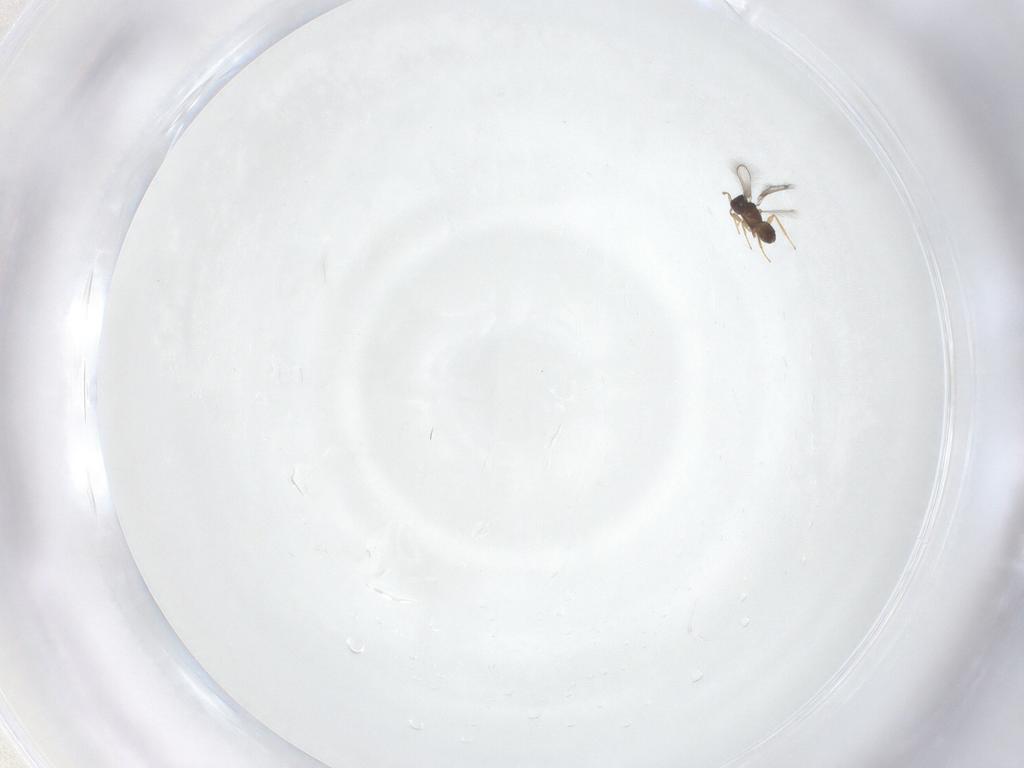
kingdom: Animalia
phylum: Arthropoda
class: Insecta
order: Hymenoptera
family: Mymaridae
